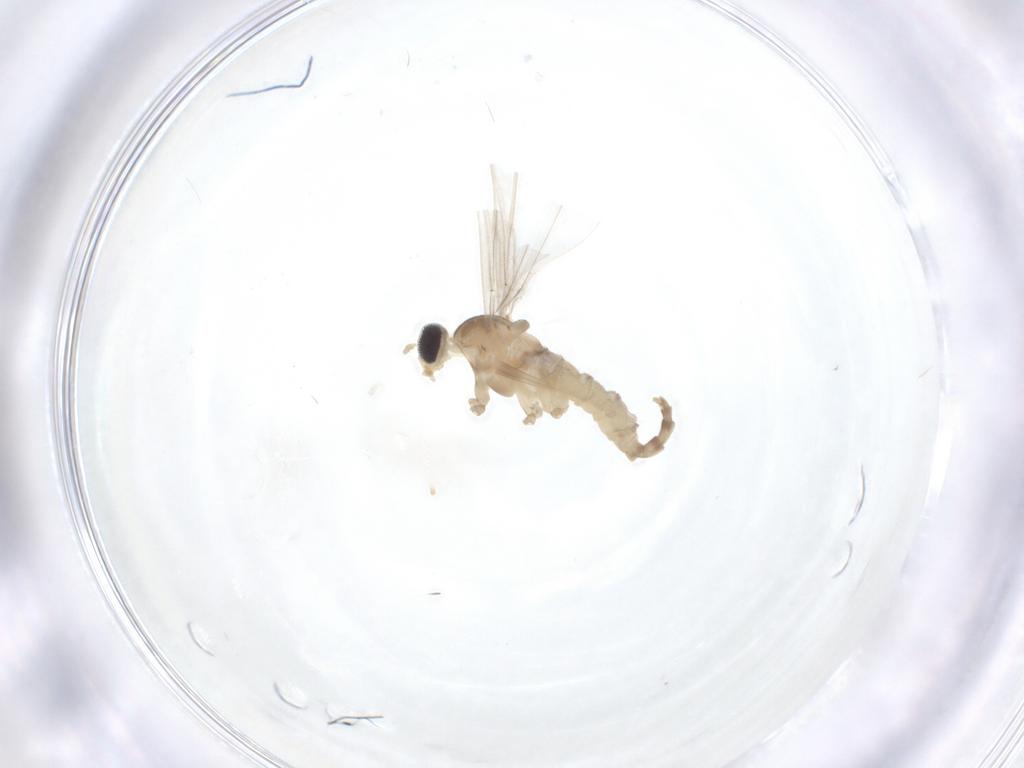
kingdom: Animalia
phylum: Arthropoda
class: Insecta
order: Diptera
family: Cecidomyiidae
